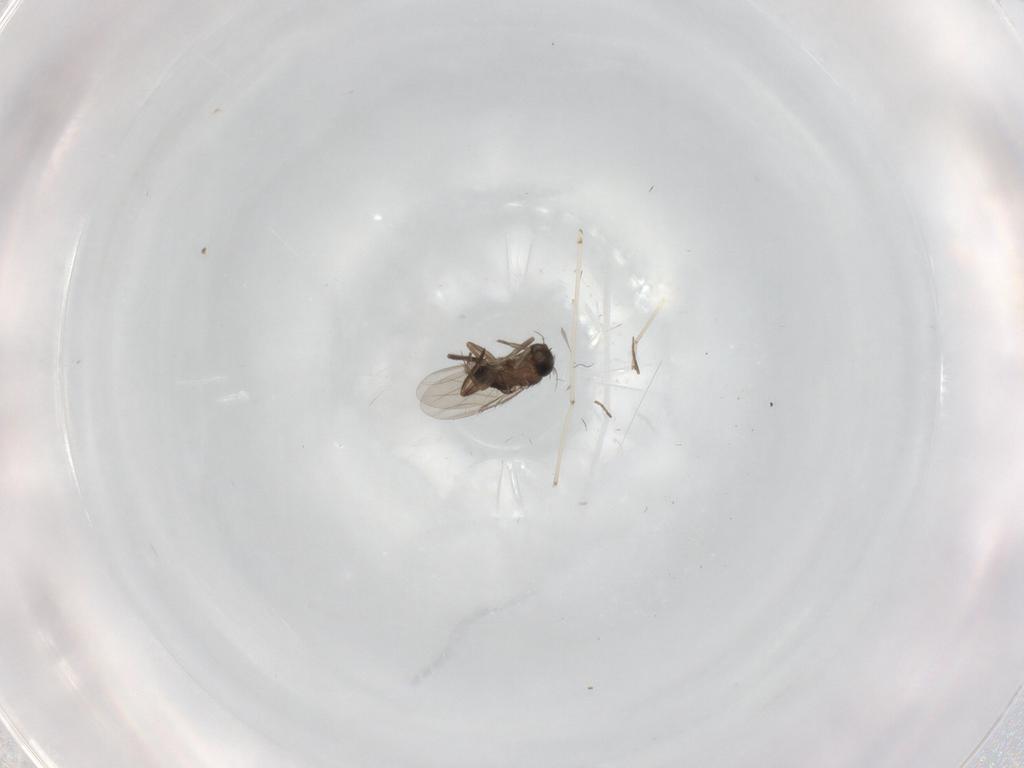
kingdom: Animalia
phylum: Arthropoda
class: Insecta
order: Diptera
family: Phoridae
